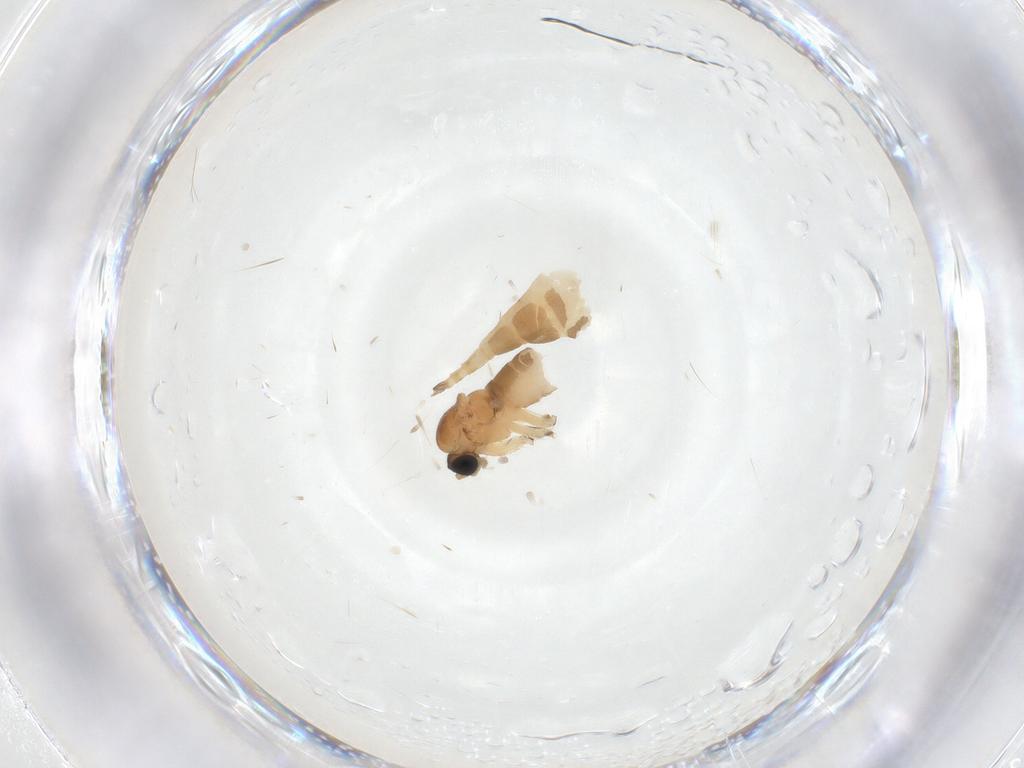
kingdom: Animalia
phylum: Arthropoda
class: Insecta
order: Diptera
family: Sciaridae
